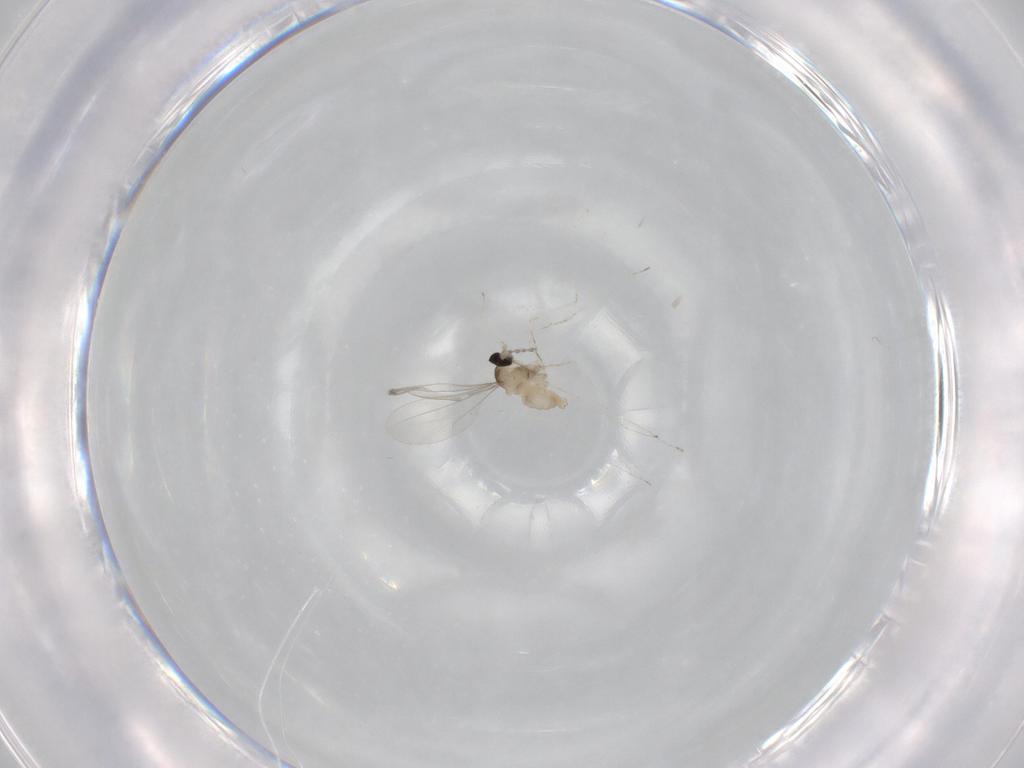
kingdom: Animalia
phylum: Arthropoda
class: Insecta
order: Diptera
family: Cecidomyiidae
